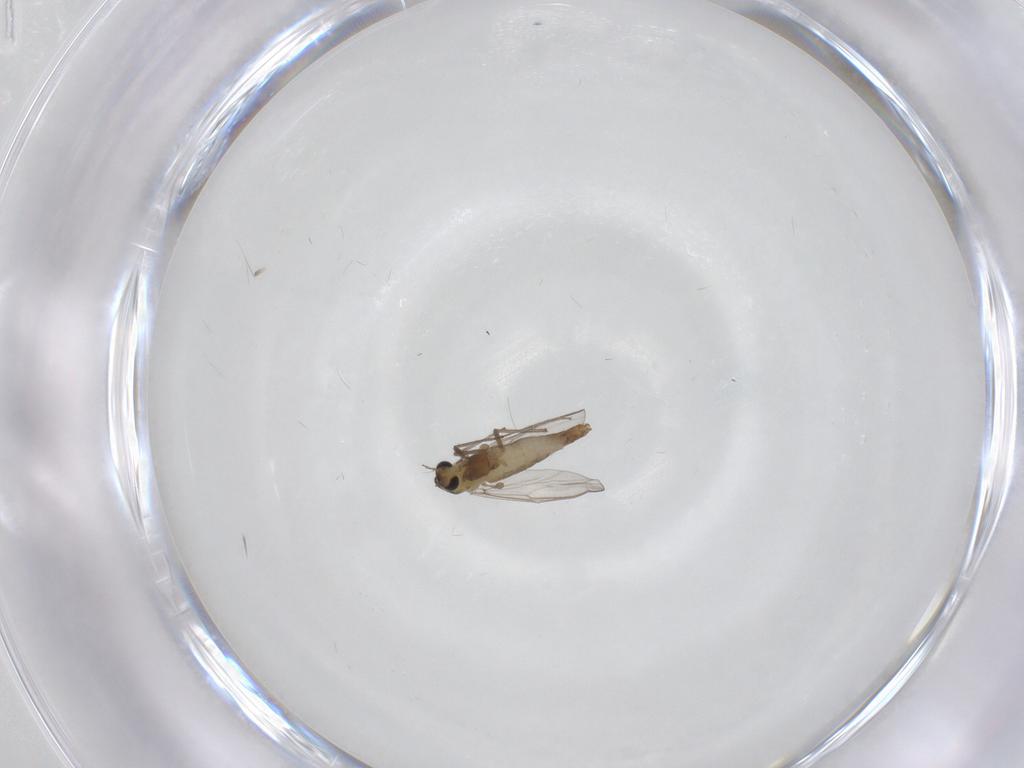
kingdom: Animalia
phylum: Arthropoda
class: Insecta
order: Diptera
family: Chironomidae
